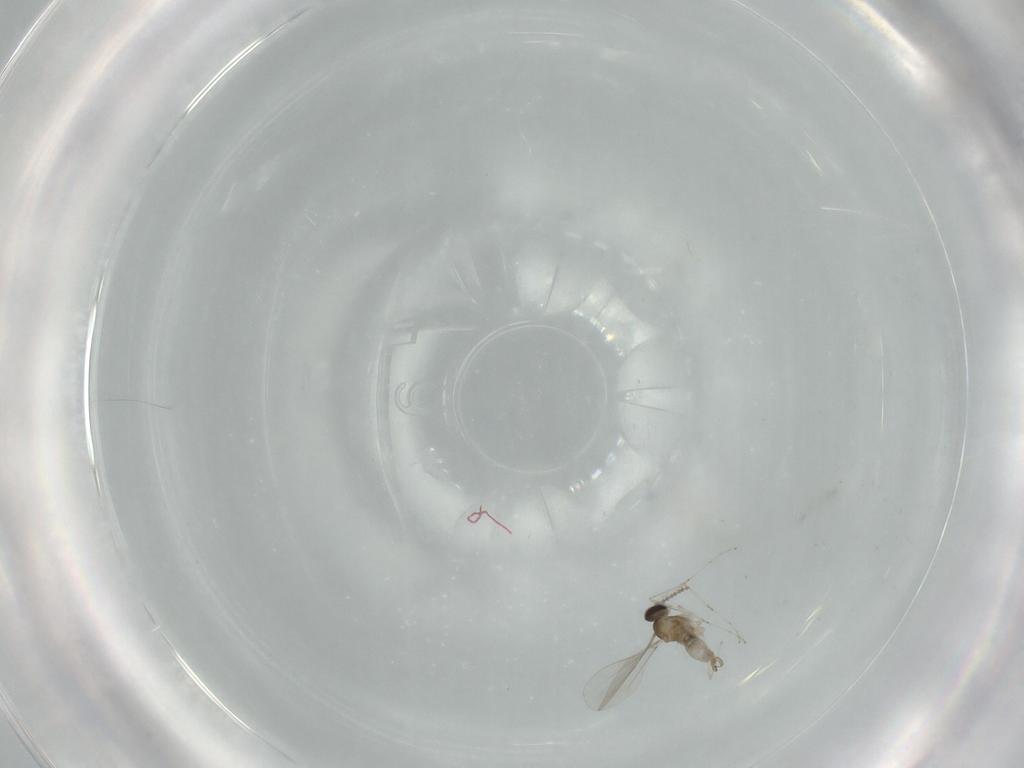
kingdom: Animalia
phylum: Arthropoda
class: Insecta
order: Diptera
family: Cecidomyiidae
